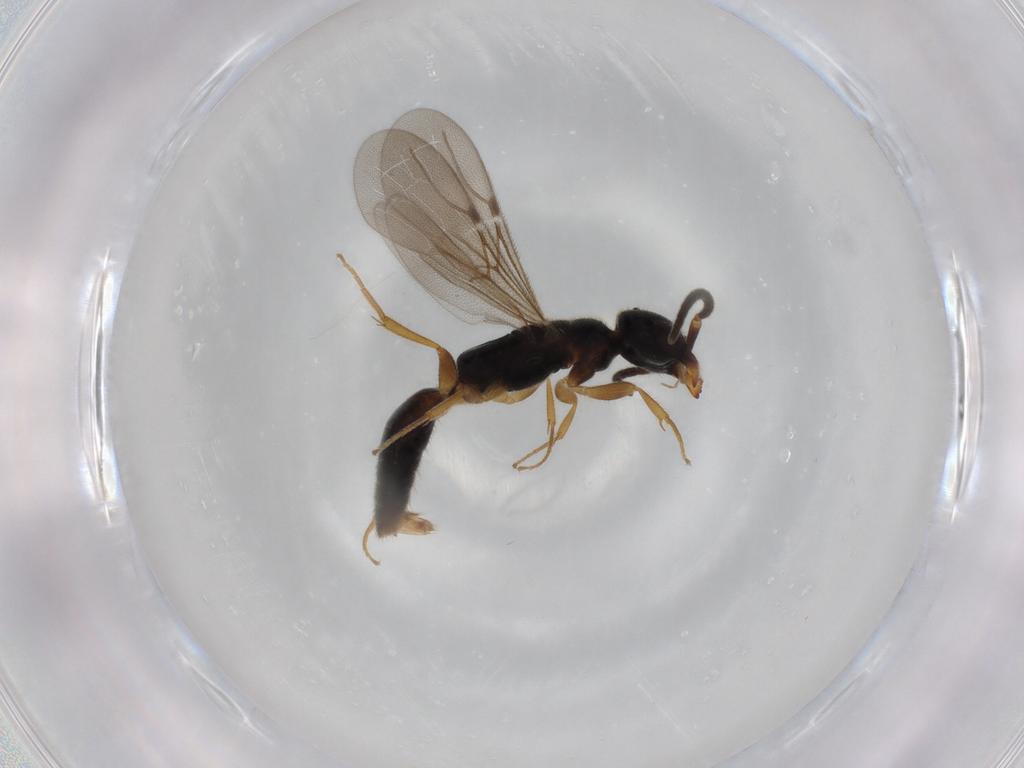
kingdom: Animalia
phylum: Arthropoda
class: Insecta
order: Hymenoptera
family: Bethylidae
